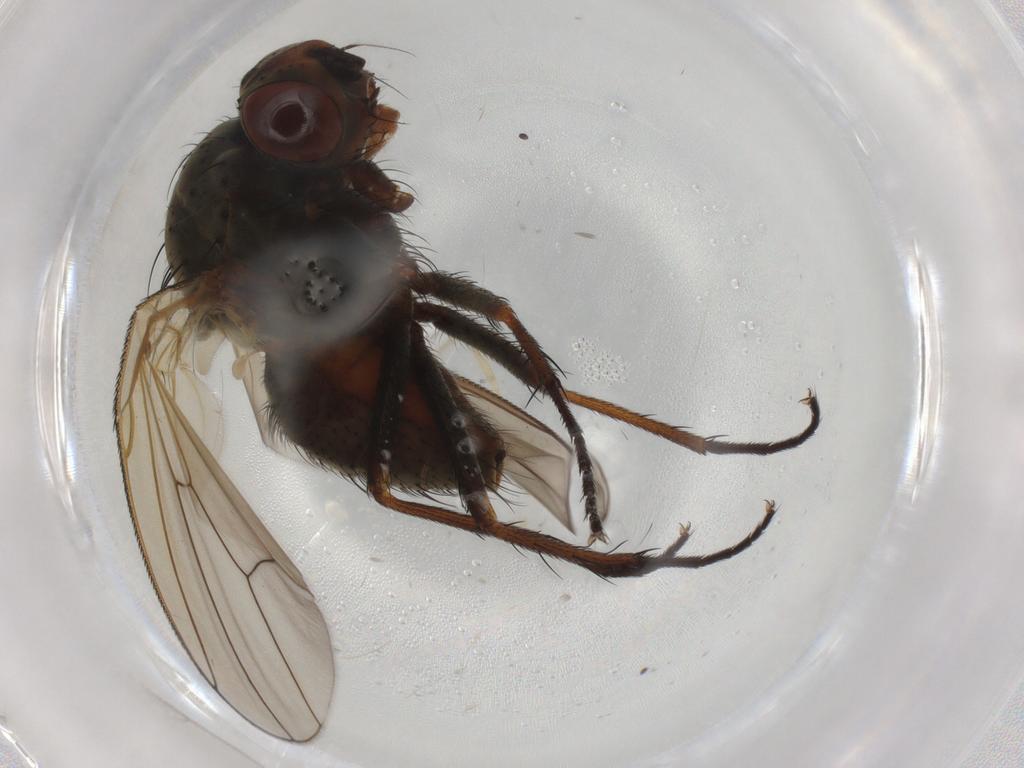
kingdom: Animalia
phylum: Arthropoda
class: Insecta
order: Diptera
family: Anthomyiidae
